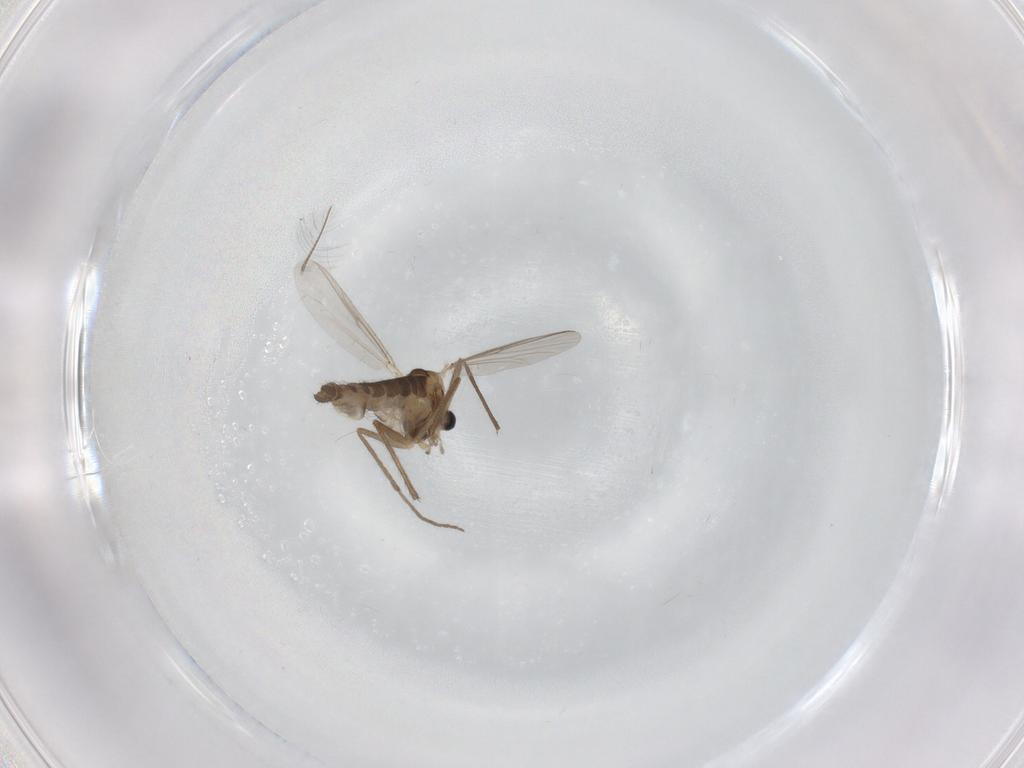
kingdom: Animalia
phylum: Arthropoda
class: Insecta
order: Diptera
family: Chironomidae
